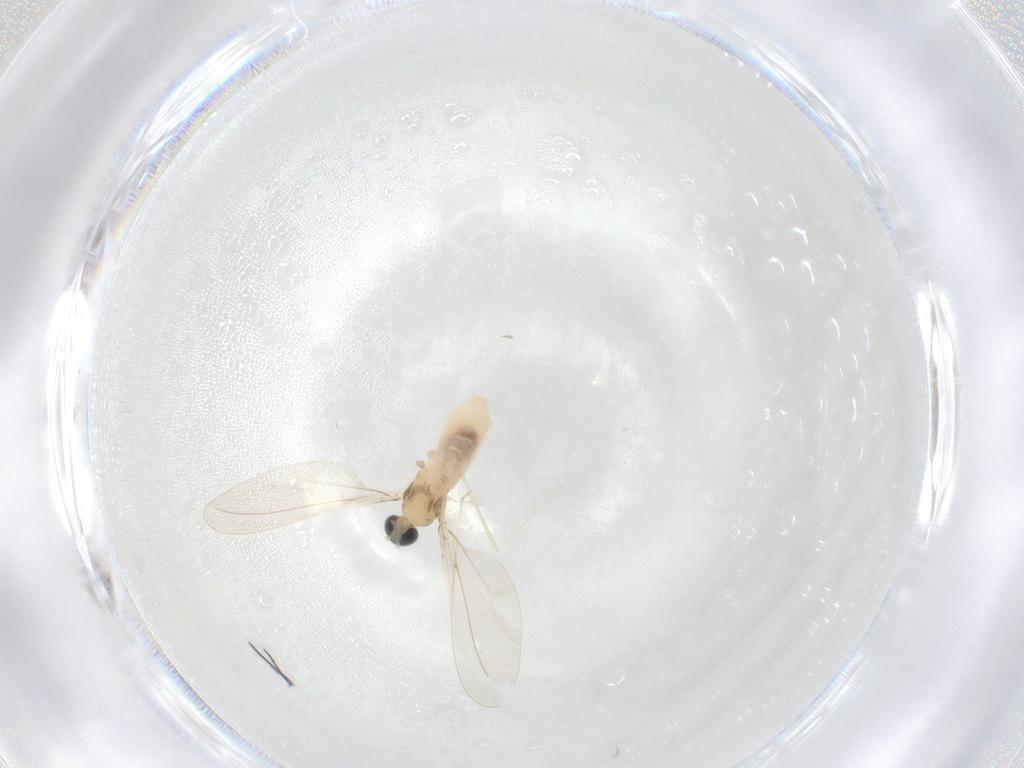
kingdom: Animalia
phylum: Arthropoda
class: Insecta
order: Diptera
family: Cecidomyiidae
